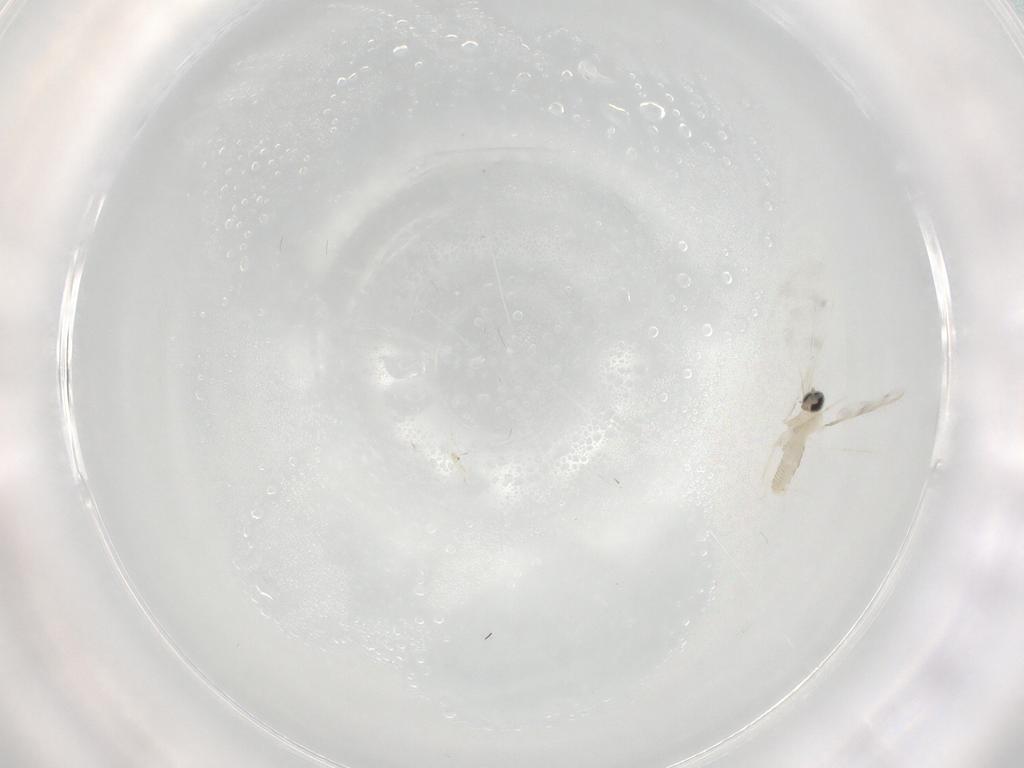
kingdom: Animalia
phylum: Arthropoda
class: Insecta
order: Diptera
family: Cecidomyiidae
